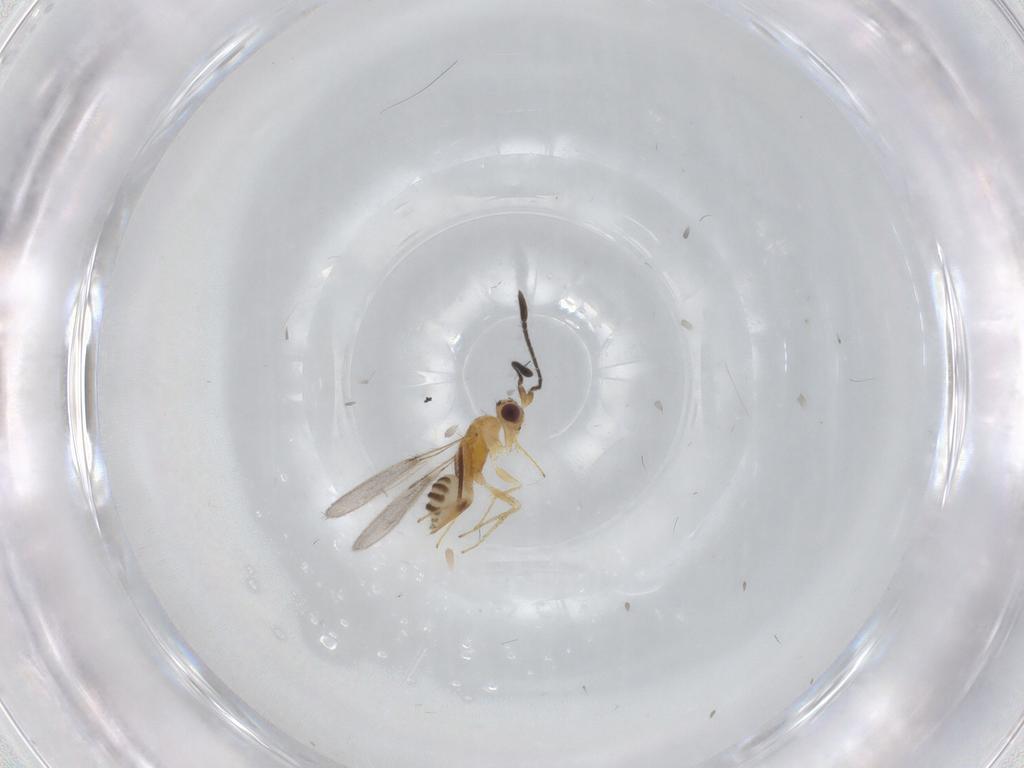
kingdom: Animalia
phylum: Arthropoda
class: Insecta
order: Hymenoptera
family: Mymaridae
